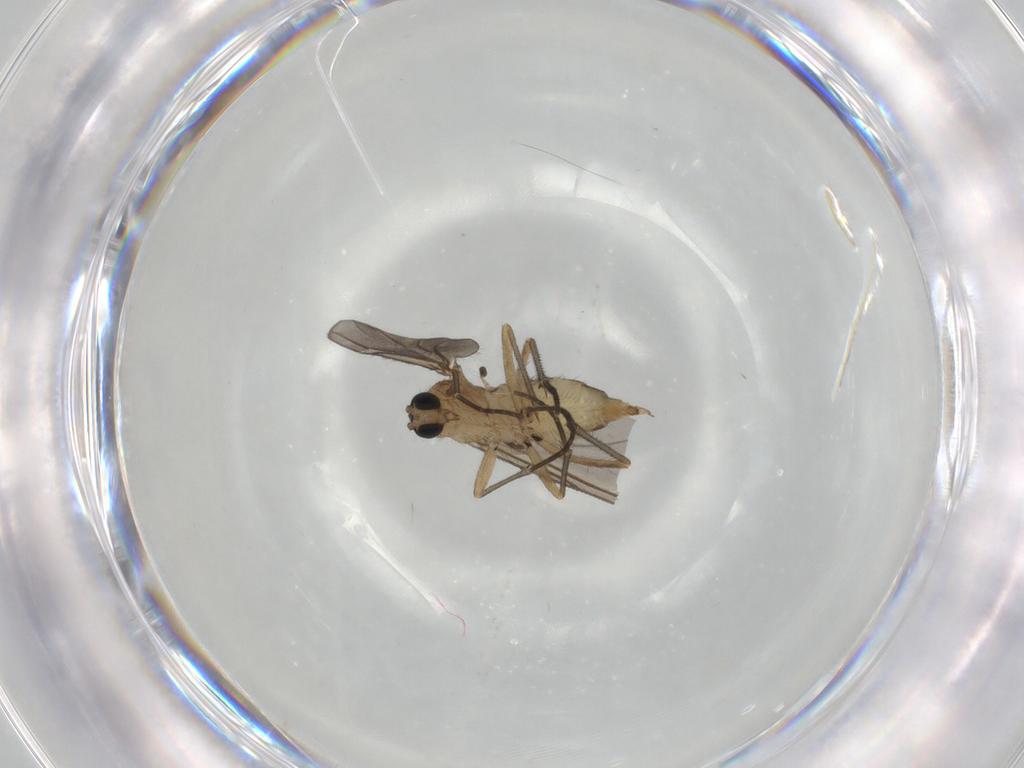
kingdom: Animalia
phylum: Arthropoda
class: Insecta
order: Diptera
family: Sciaridae
